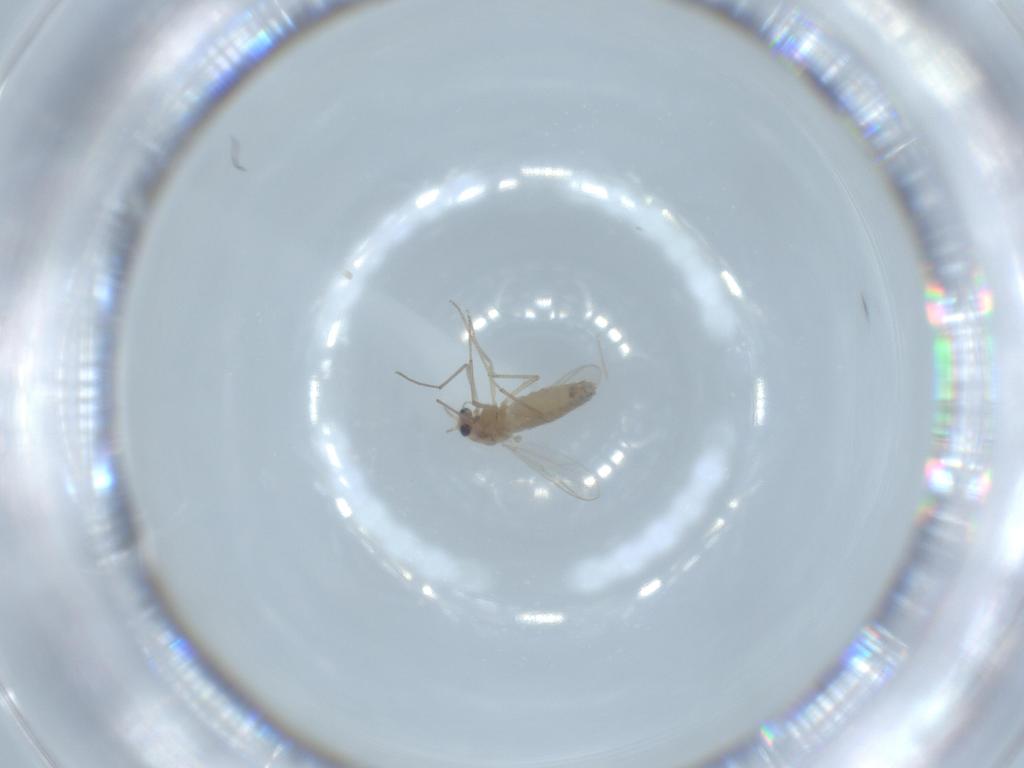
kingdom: Animalia
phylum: Arthropoda
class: Insecta
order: Diptera
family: Chironomidae
